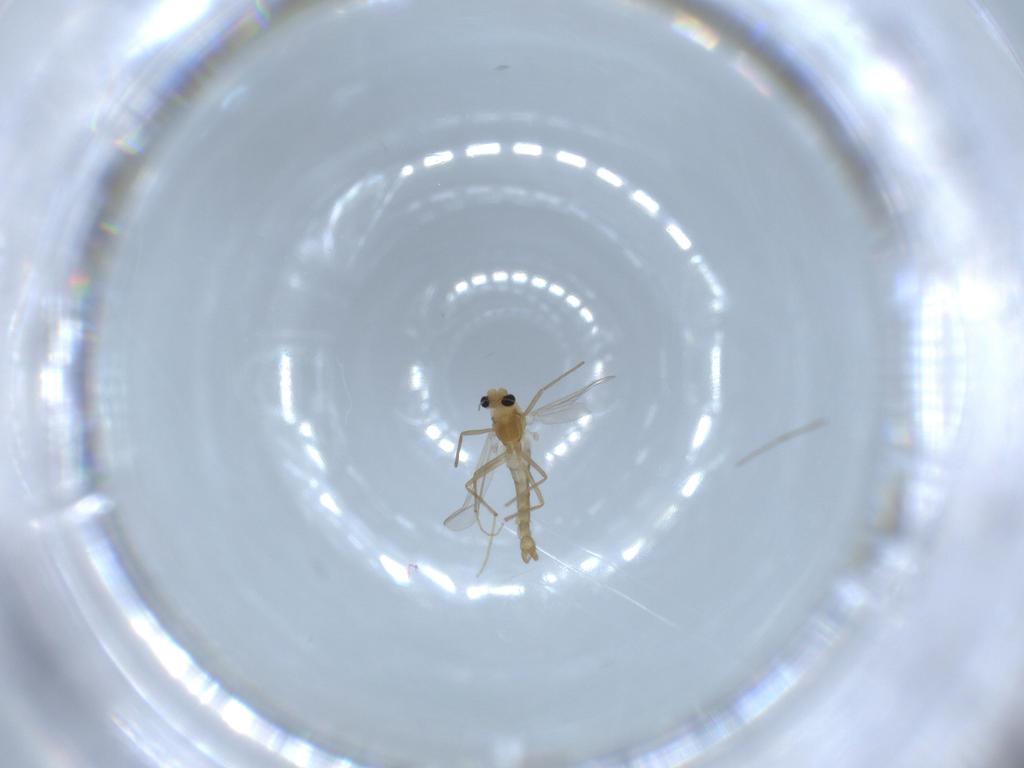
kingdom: Animalia
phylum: Arthropoda
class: Insecta
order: Diptera
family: Chironomidae
